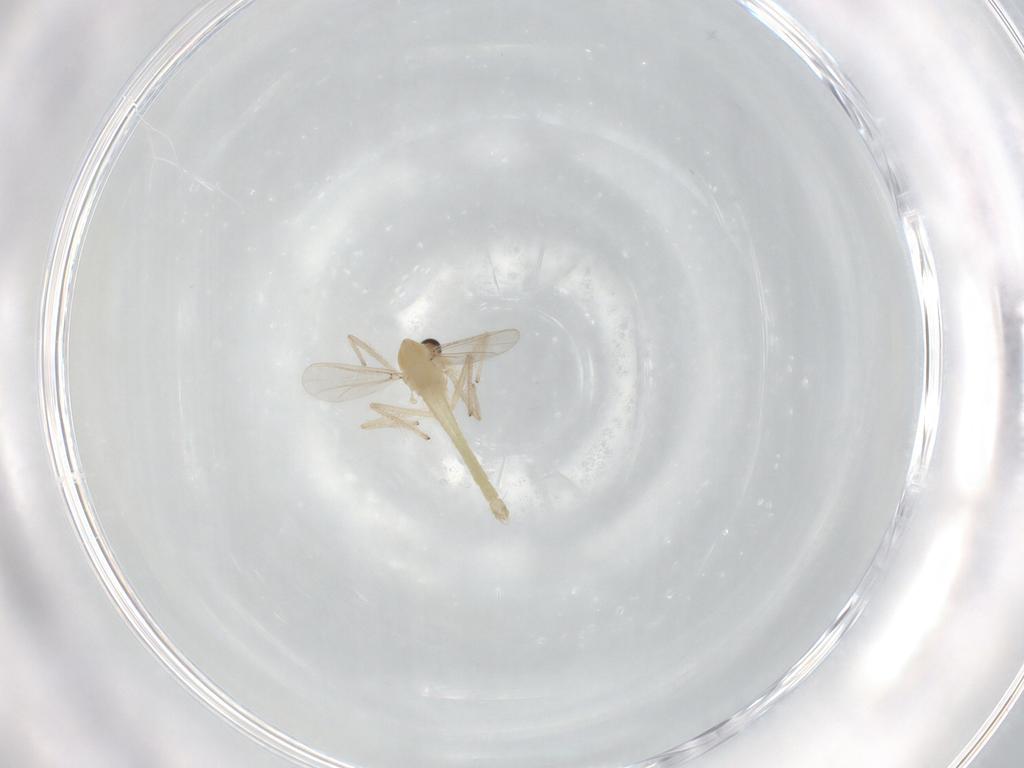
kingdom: Animalia
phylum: Arthropoda
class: Insecta
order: Diptera
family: Chironomidae
